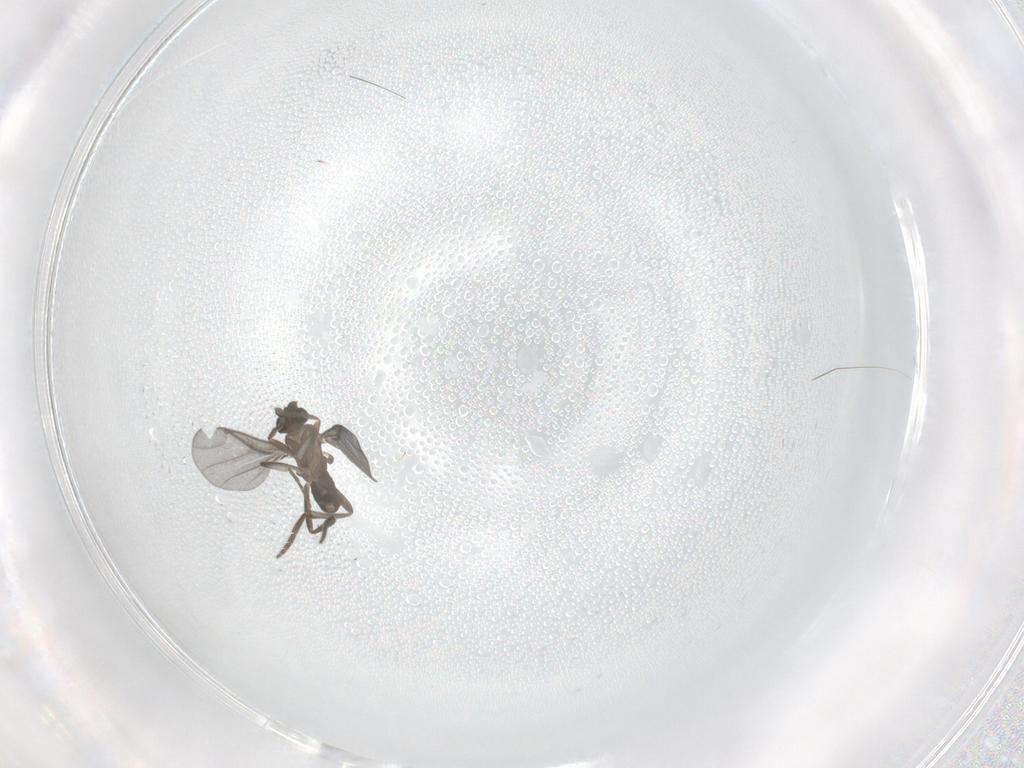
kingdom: Animalia
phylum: Arthropoda
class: Insecta
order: Diptera
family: Phoridae
